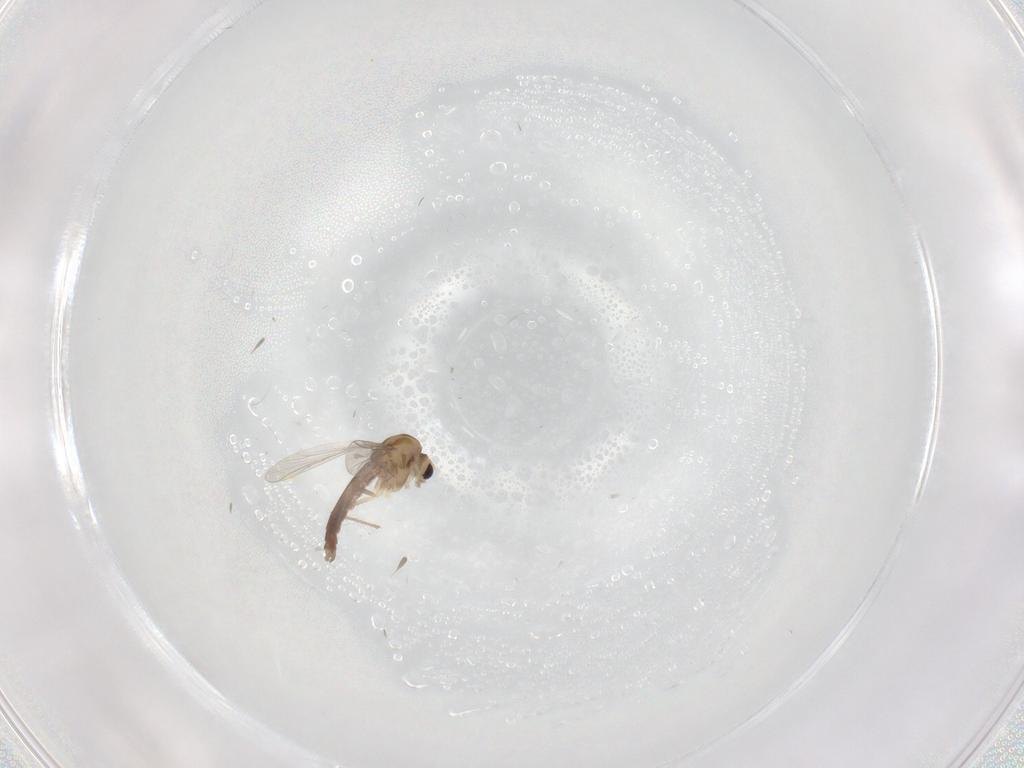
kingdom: Animalia
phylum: Arthropoda
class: Insecta
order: Diptera
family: Chironomidae
